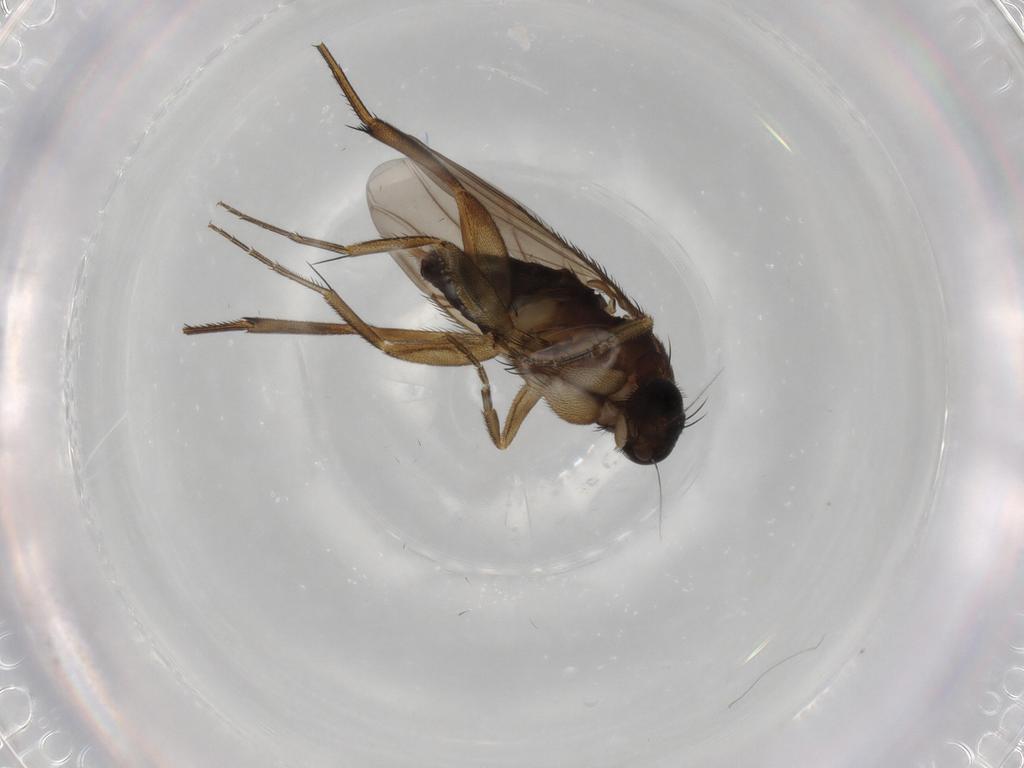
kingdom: Animalia
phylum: Arthropoda
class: Insecta
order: Diptera
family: Phoridae
